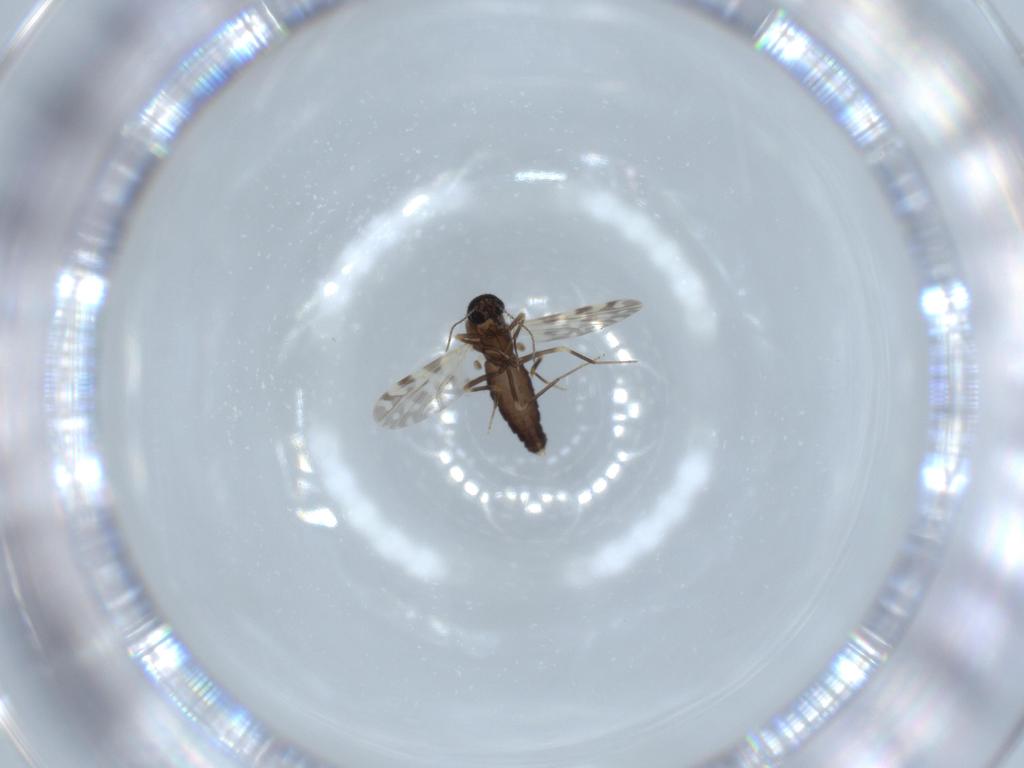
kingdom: Animalia
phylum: Arthropoda
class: Insecta
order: Diptera
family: Ceratopogonidae
